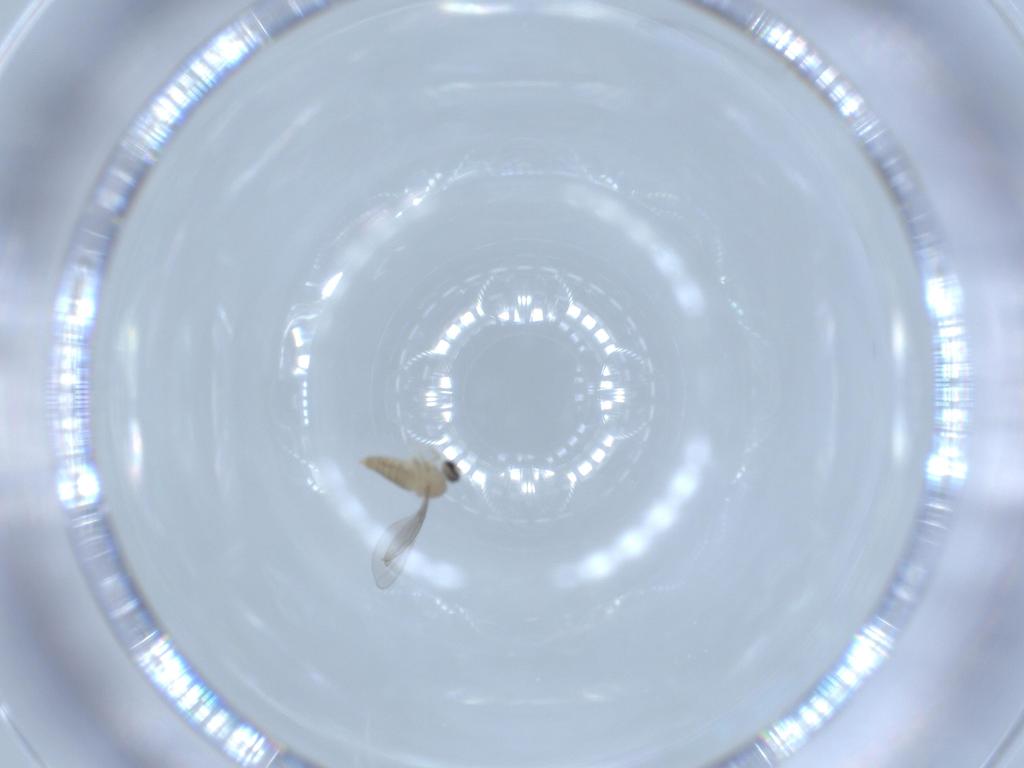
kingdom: Animalia
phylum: Arthropoda
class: Insecta
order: Diptera
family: Cecidomyiidae
